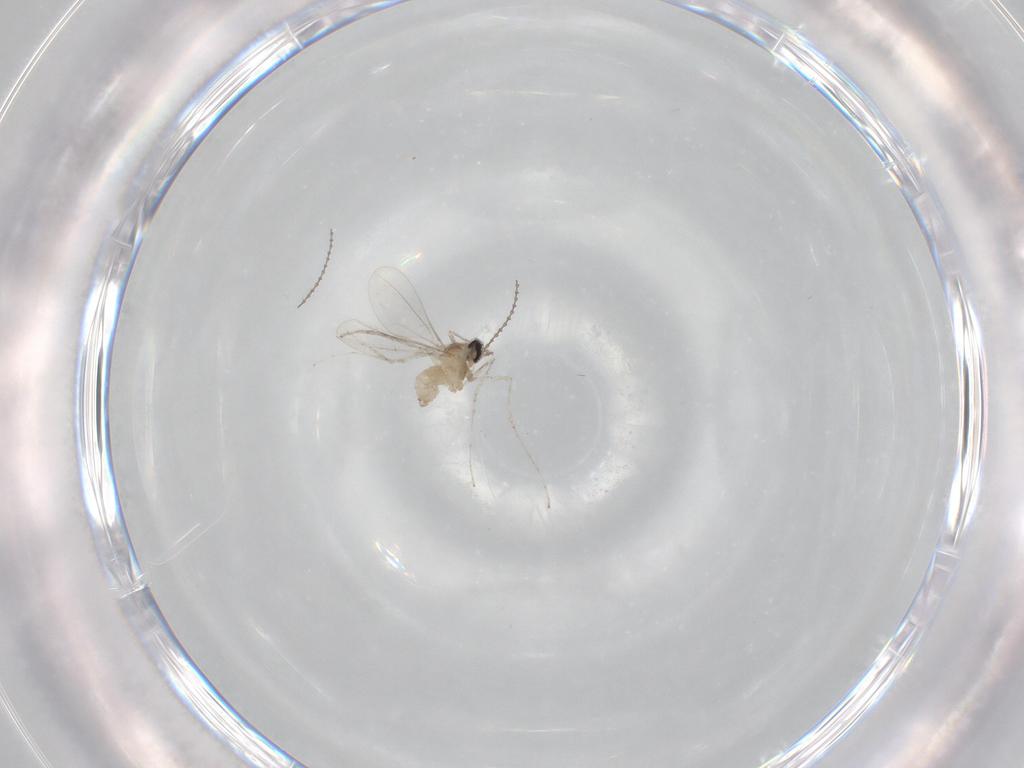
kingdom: Animalia
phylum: Arthropoda
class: Insecta
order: Diptera
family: Cecidomyiidae
